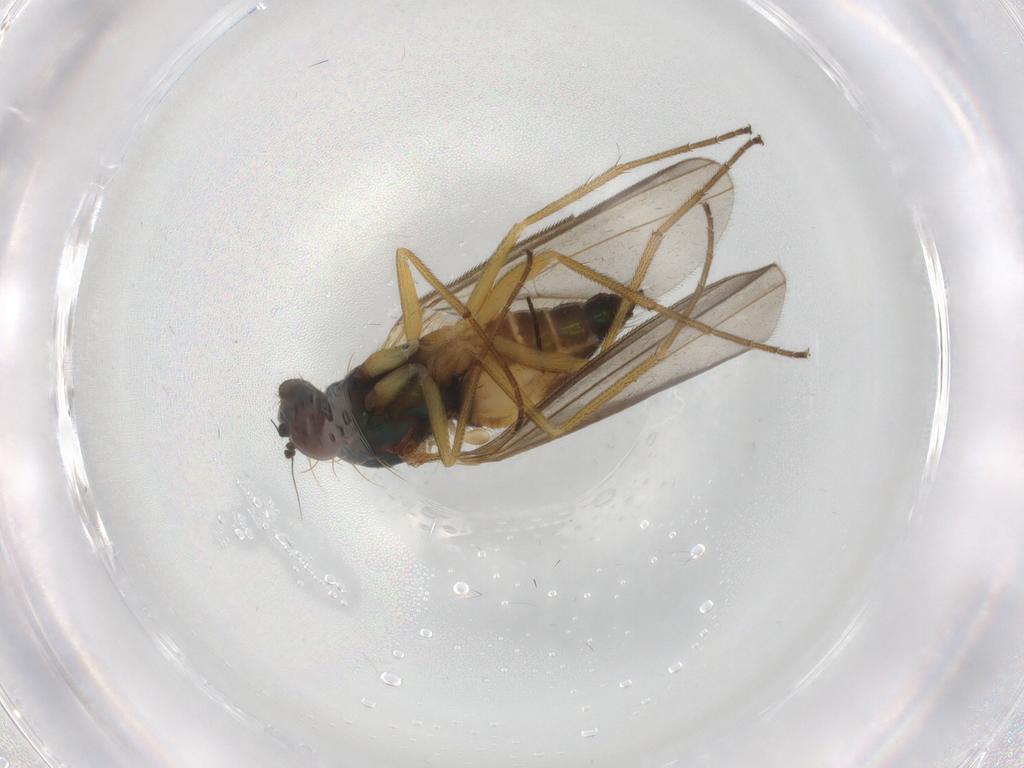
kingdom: Animalia
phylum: Arthropoda
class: Insecta
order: Diptera
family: Dolichopodidae
